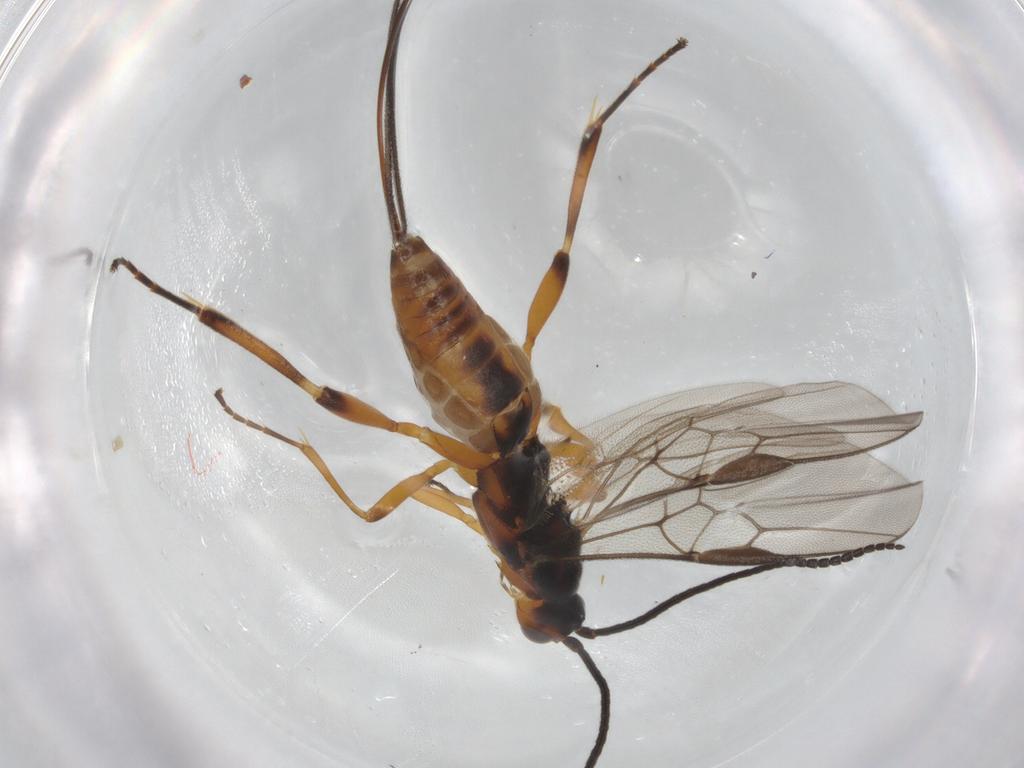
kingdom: Animalia
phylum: Arthropoda
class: Insecta
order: Hymenoptera
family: Braconidae
